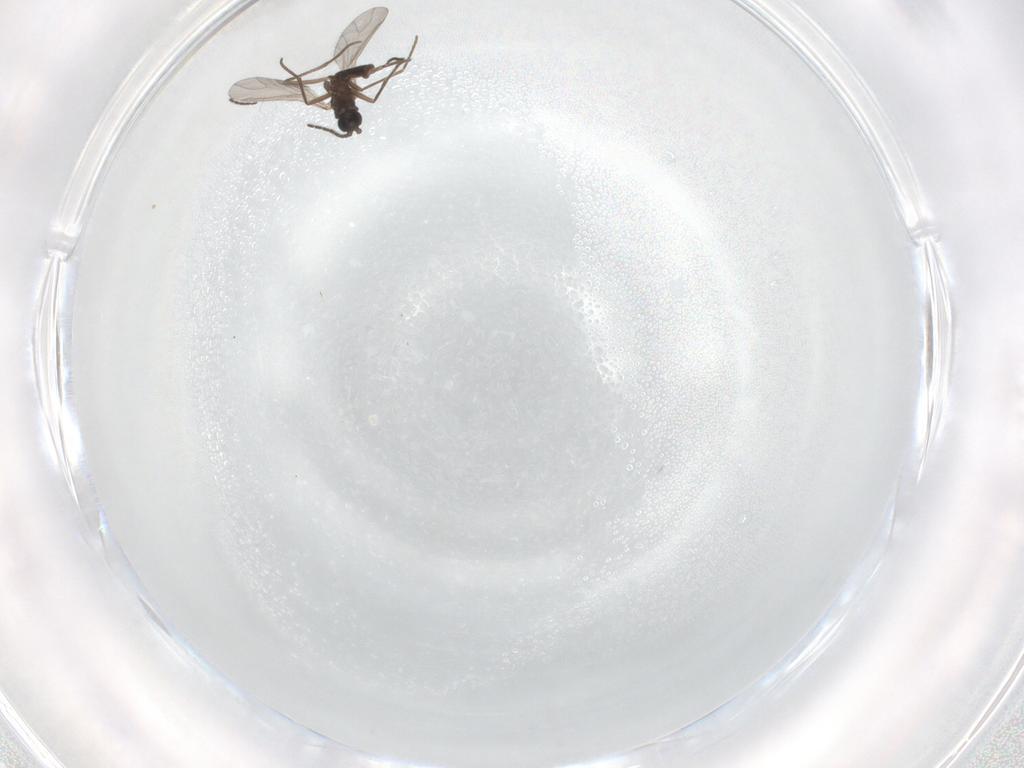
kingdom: Animalia
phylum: Arthropoda
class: Insecta
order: Diptera
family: Sciaridae
